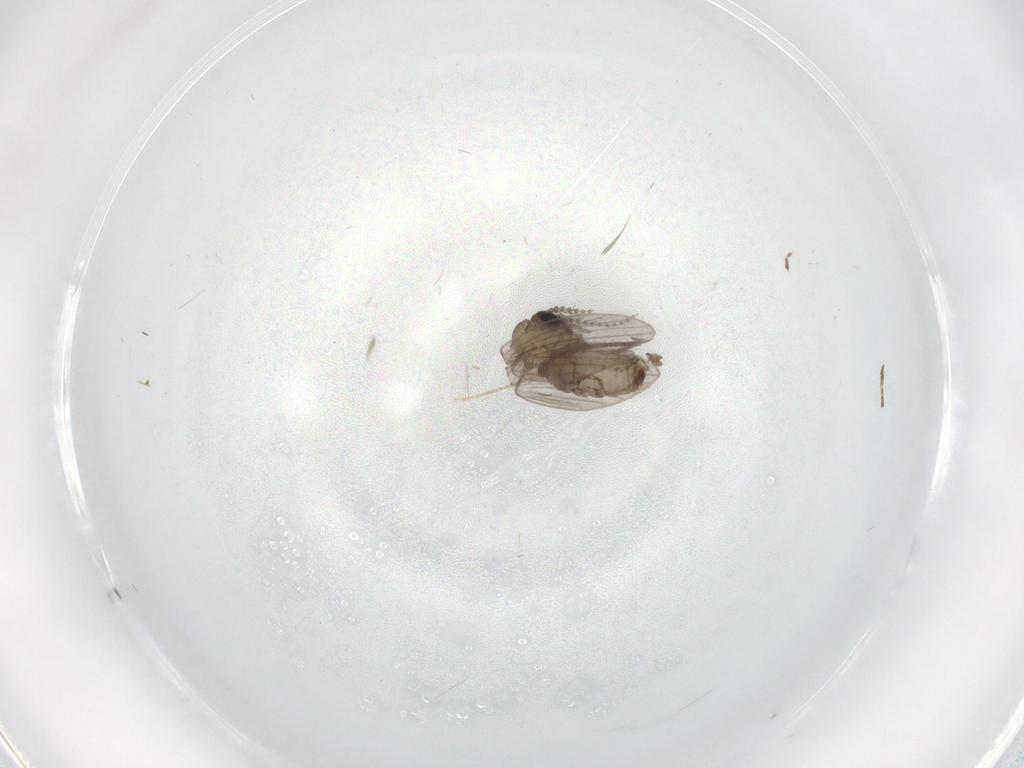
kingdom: Animalia
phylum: Arthropoda
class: Insecta
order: Diptera
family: Psychodidae
